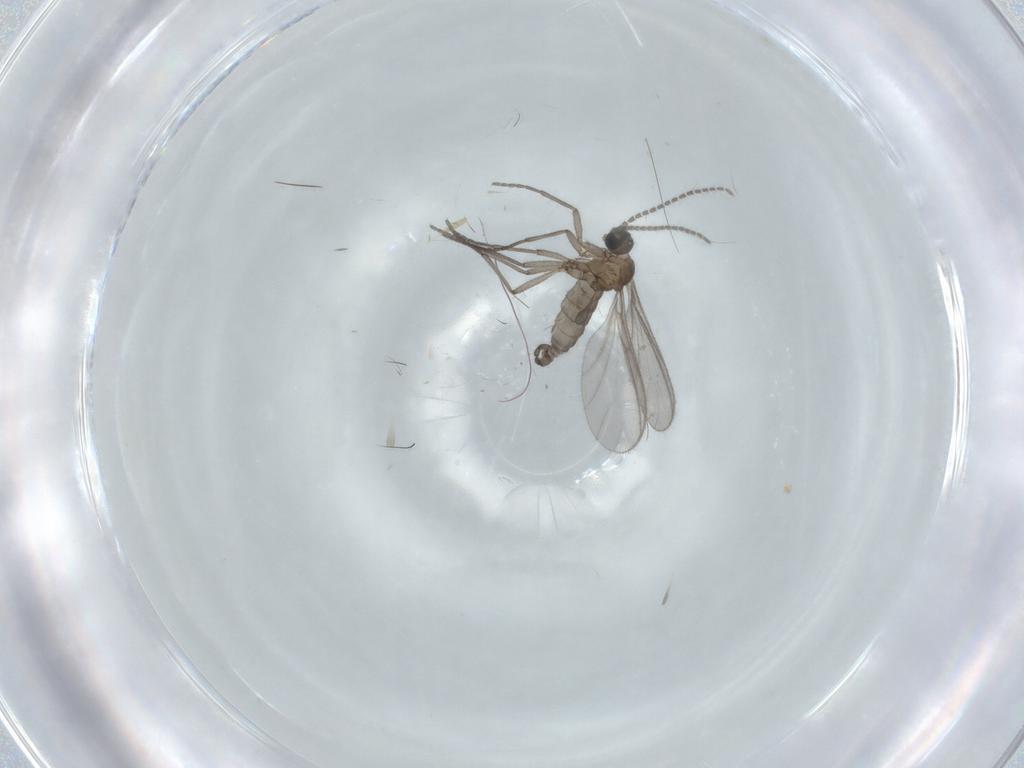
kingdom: Animalia
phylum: Arthropoda
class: Insecta
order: Diptera
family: Sciaridae
